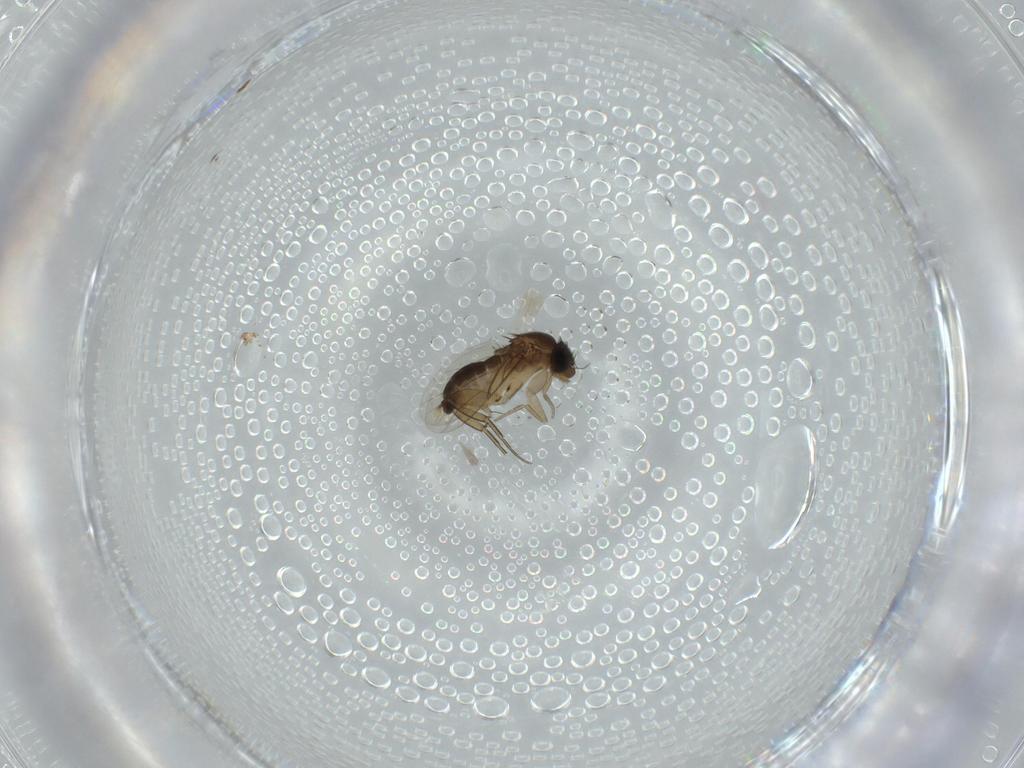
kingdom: Animalia
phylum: Arthropoda
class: Insecta
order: Diptera
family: Phoridae
